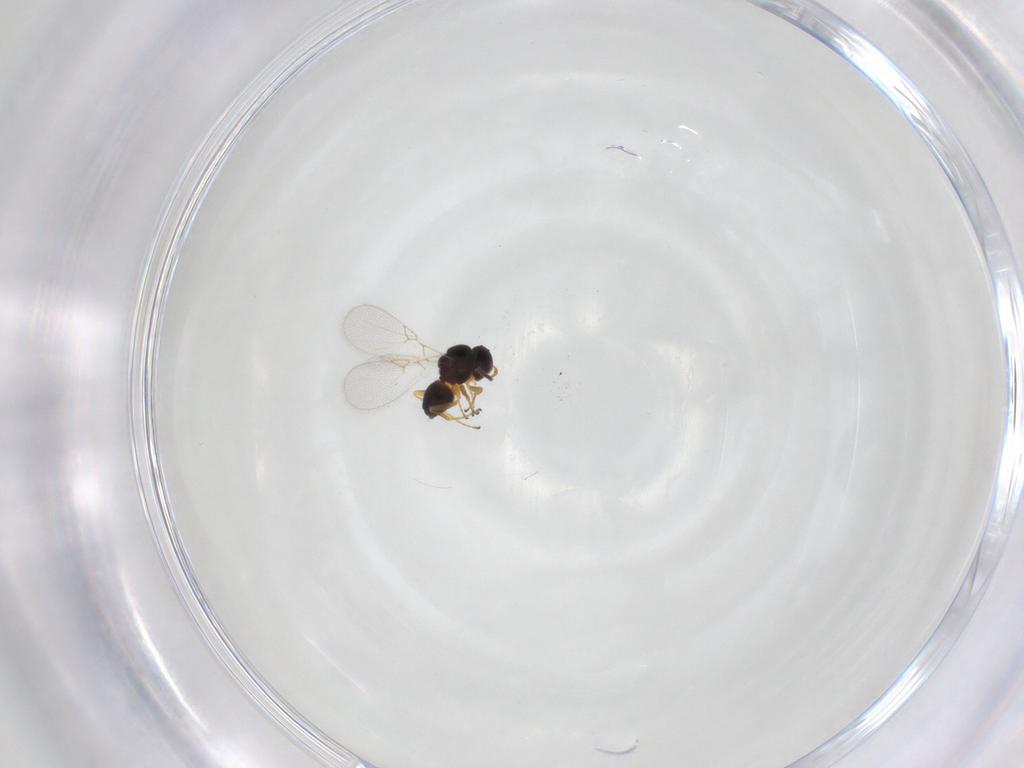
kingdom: Animalia
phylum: Arthropoda
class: Insecta
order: Hymenoptera
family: Figitidae
